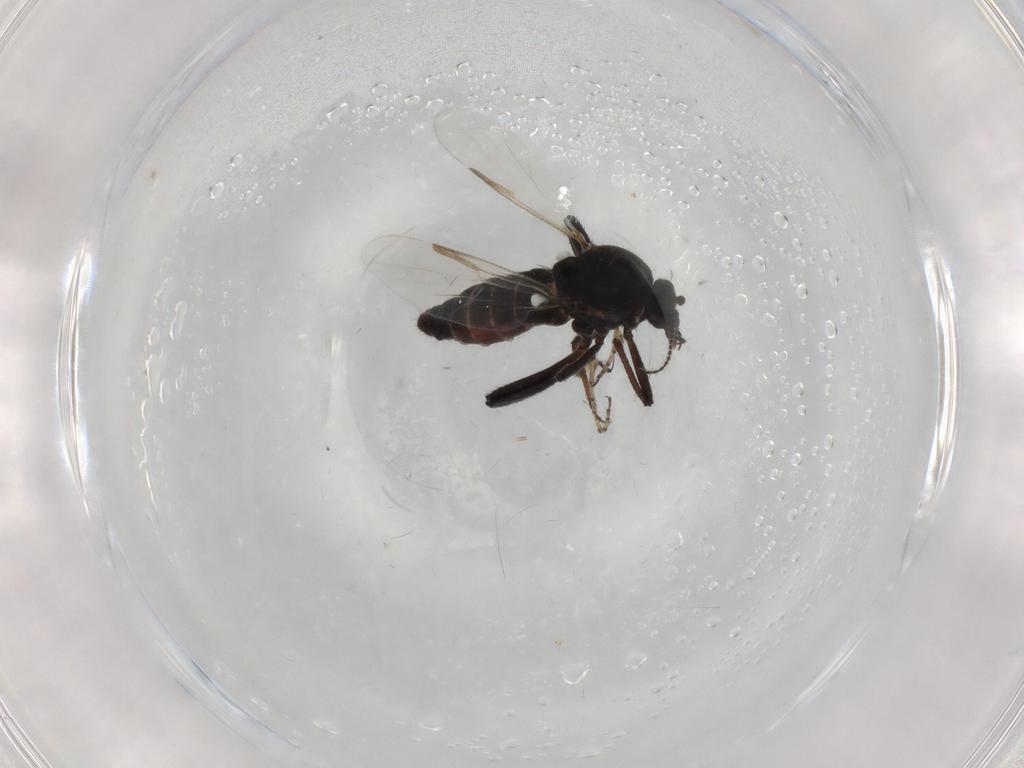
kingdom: Animalia
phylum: Arthropoda
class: Insecta
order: Diptera
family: Ceratopogonidae
